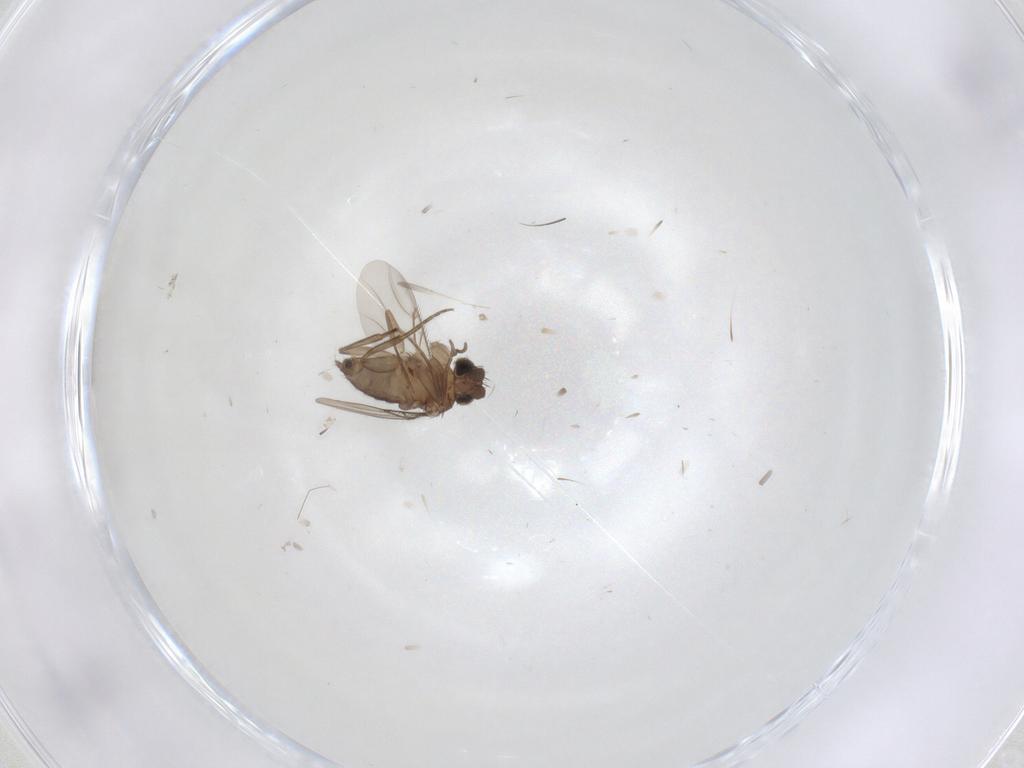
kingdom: Animalia
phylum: Arthropoda
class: Insecta
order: Diptera
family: Phoridae
